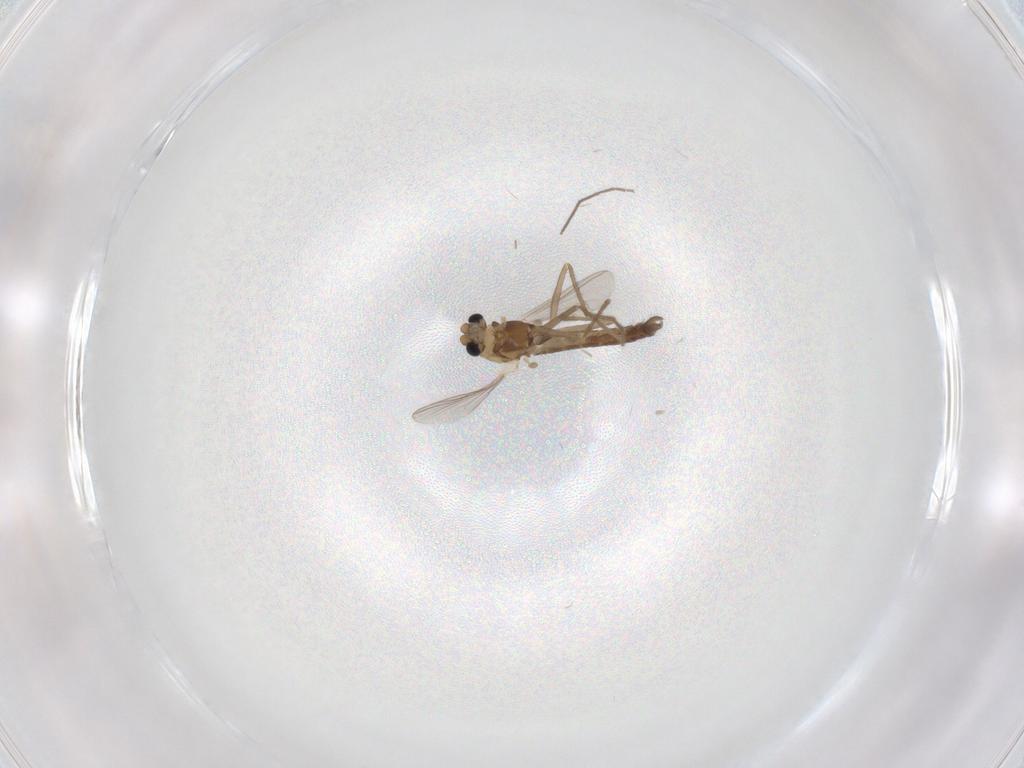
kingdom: Animalia
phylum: Arthropoda
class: Insecta
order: Diptera
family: Chironomidae
